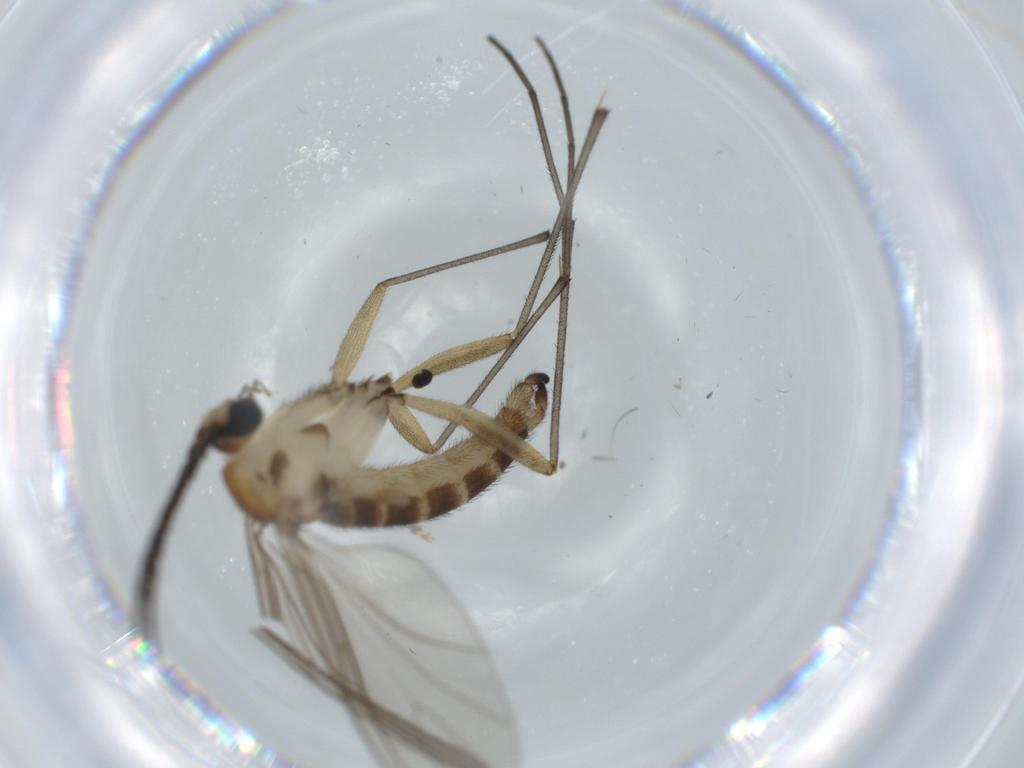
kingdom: Animalia
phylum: Arthropoda
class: Insecta
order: Diptera
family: Sciaridae
